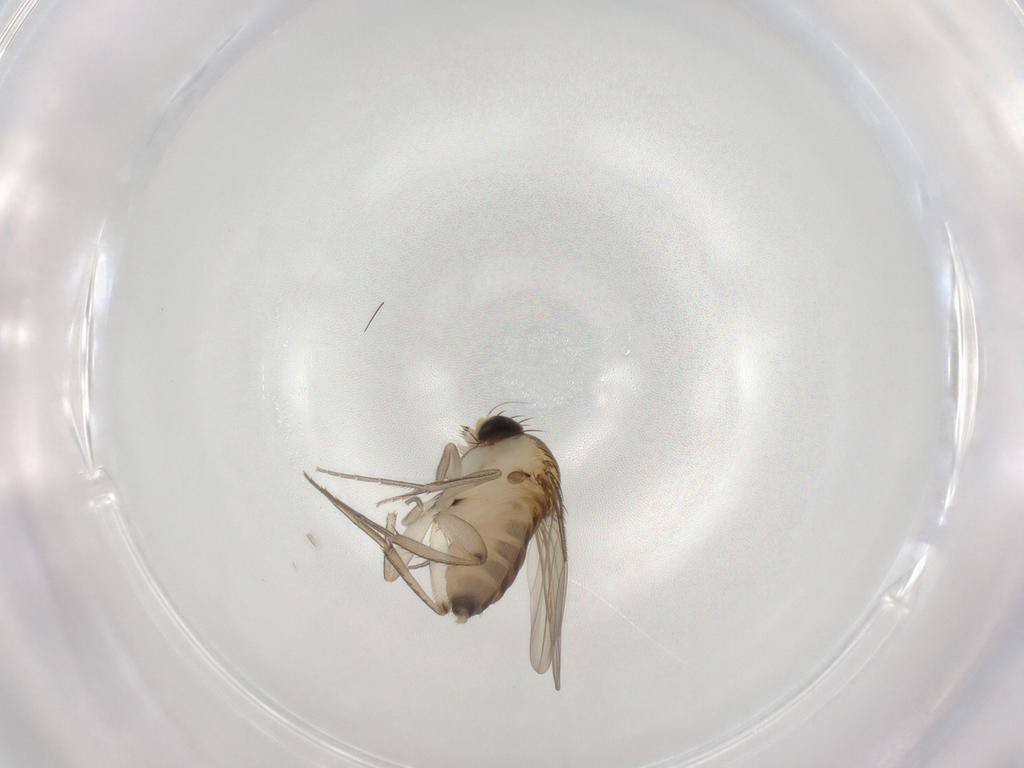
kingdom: Animalia
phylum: Arthropoda
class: Insecta
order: Diptera
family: Phoridae
